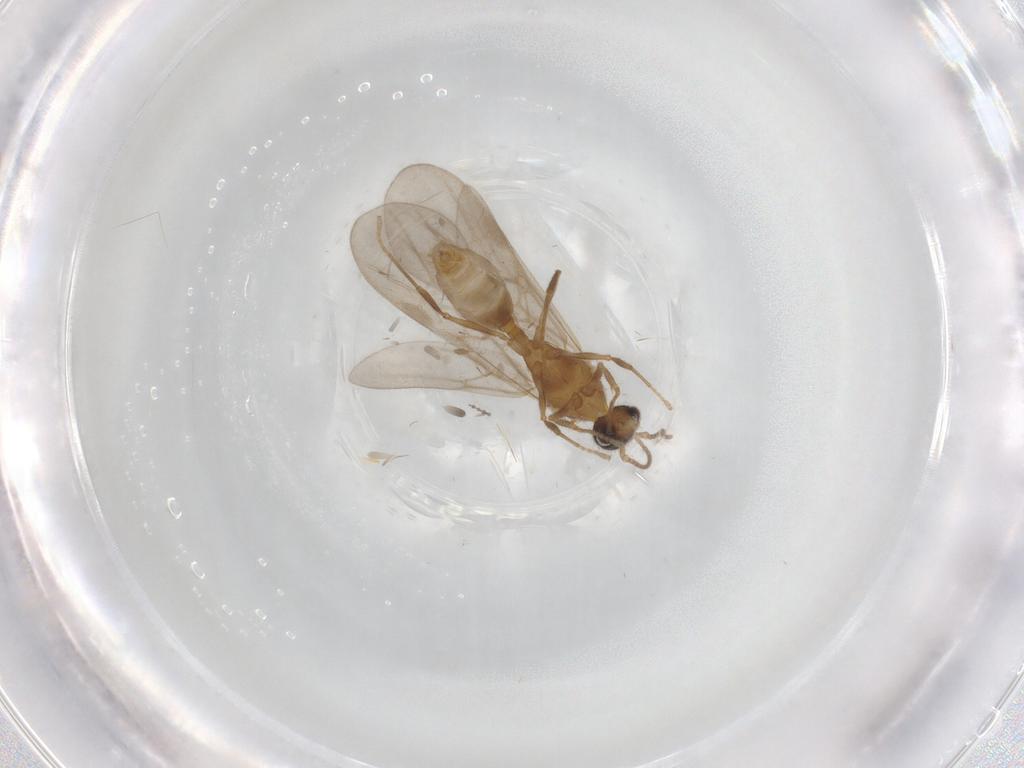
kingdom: Animalia
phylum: Arthropoda
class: Insecta
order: Hymenoptera
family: Formicidae
